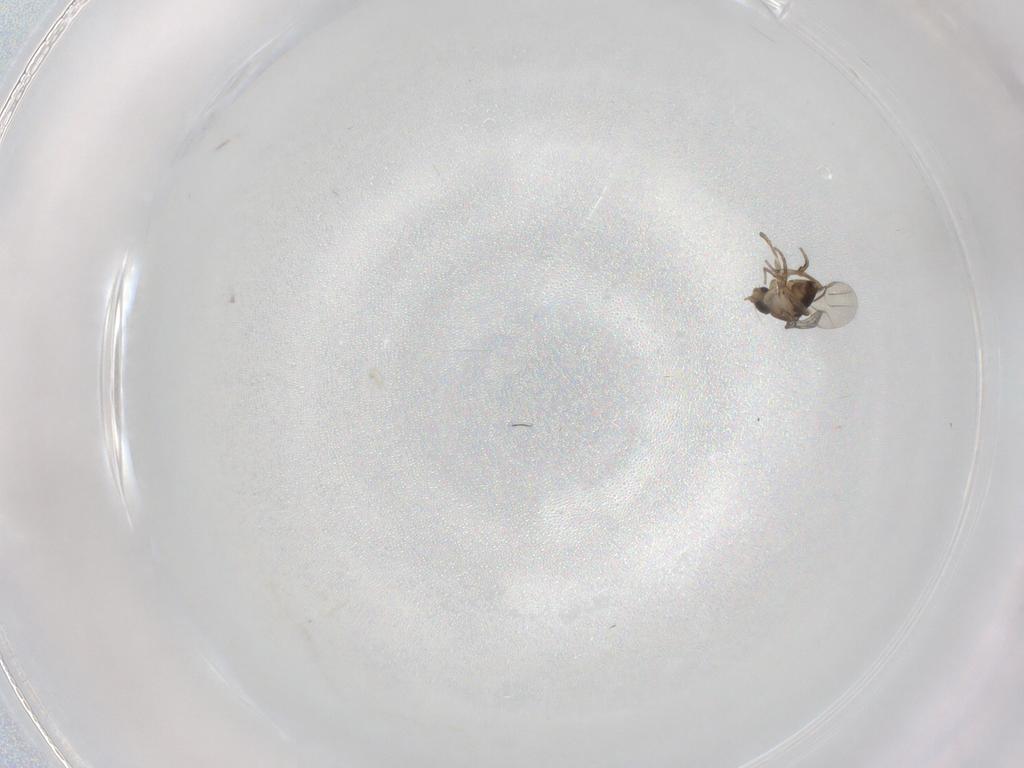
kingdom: Animalia
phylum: Arthropoda
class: Insecta
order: Diptera
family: Phoridae
